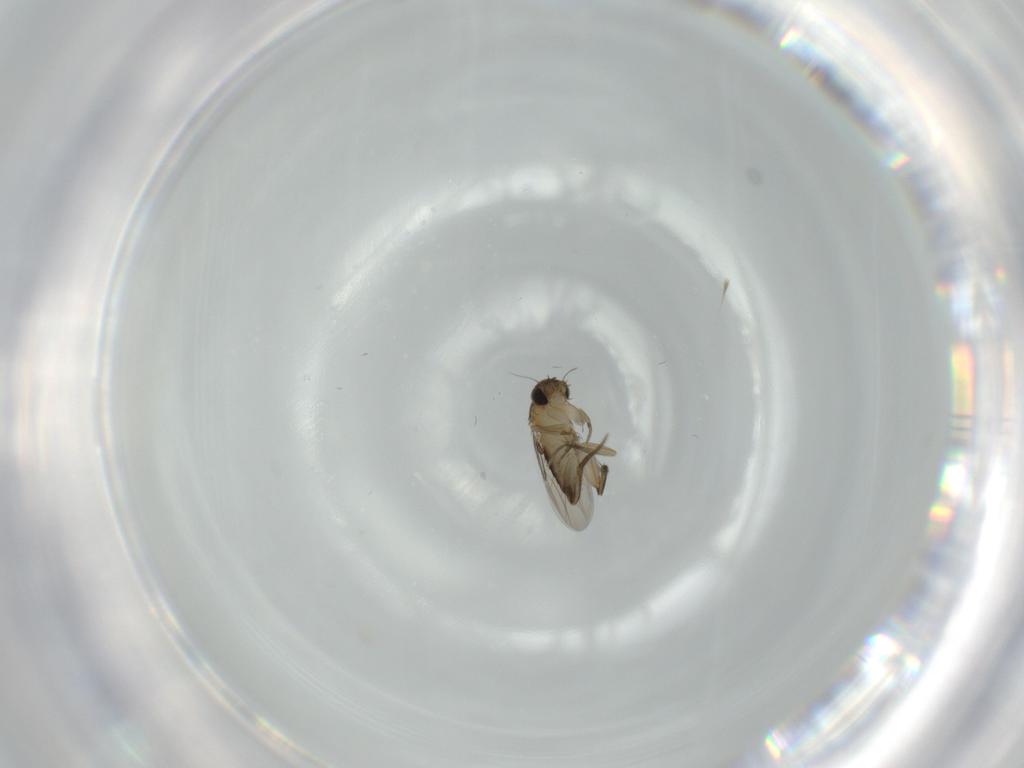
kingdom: Animalia
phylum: Arthropoda
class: Insecta
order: Diptera
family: Phoridae
